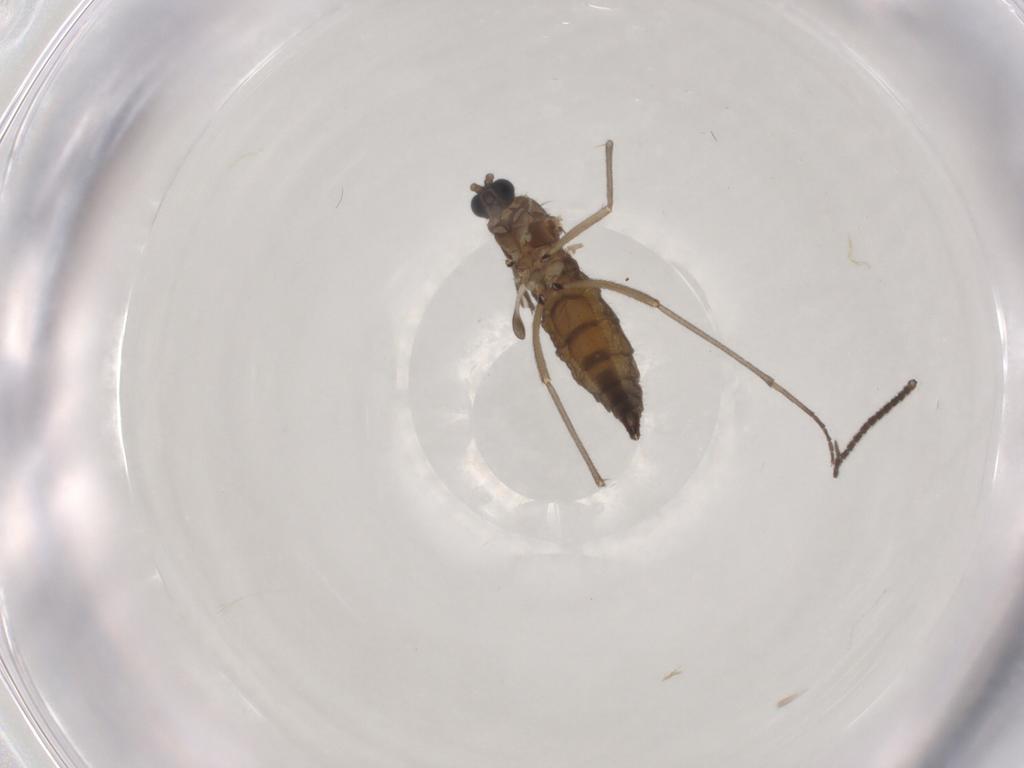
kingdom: Animalia
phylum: Arthropoda
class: Insecta
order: Diptera
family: Sciaridae
